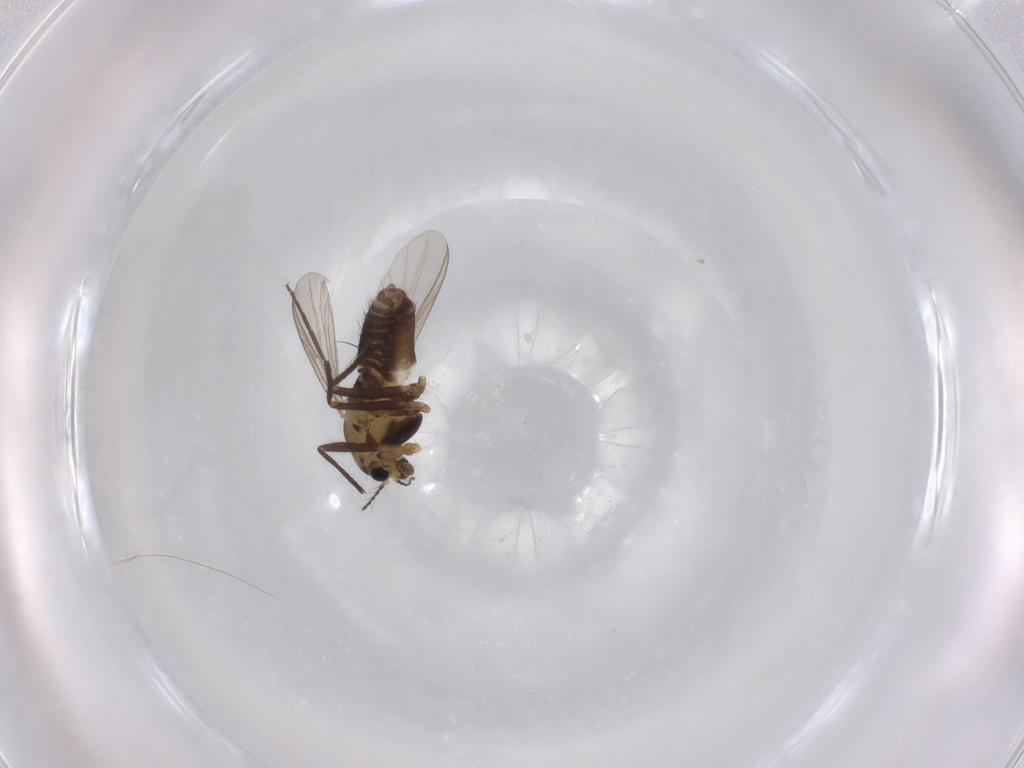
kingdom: Animalia
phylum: Arthropoda
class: Insecta
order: Diptera
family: Chironomidae
